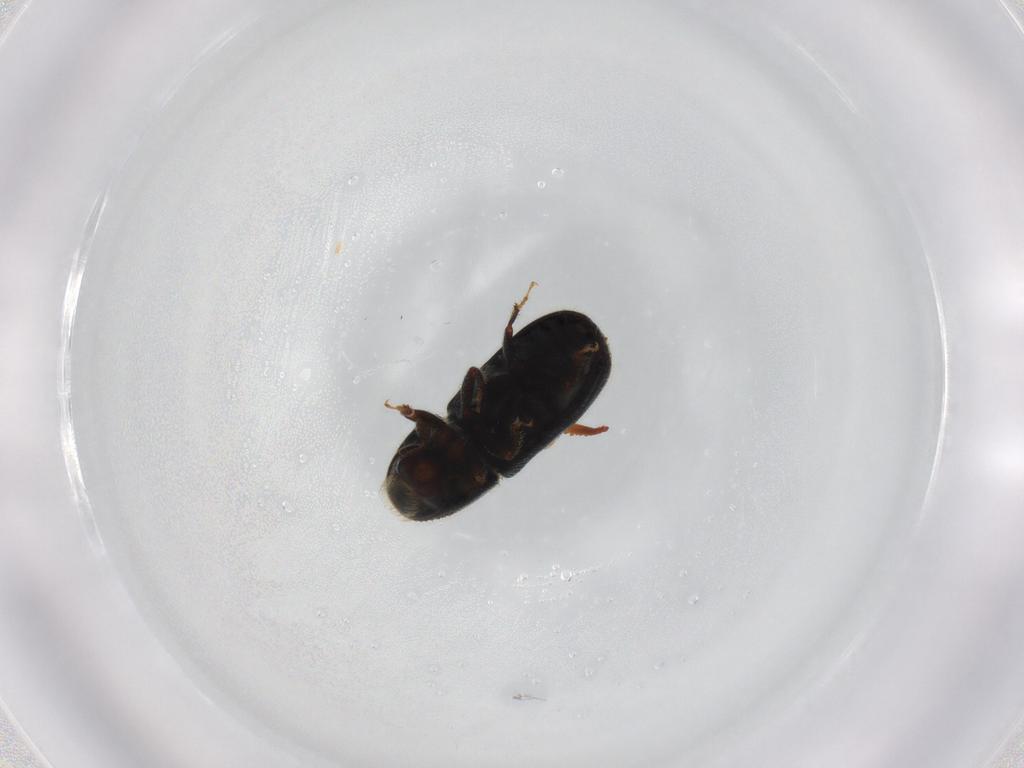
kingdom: Animalia
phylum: Arthropoda
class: Insecta
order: Coleoptera
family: Curculionidae
